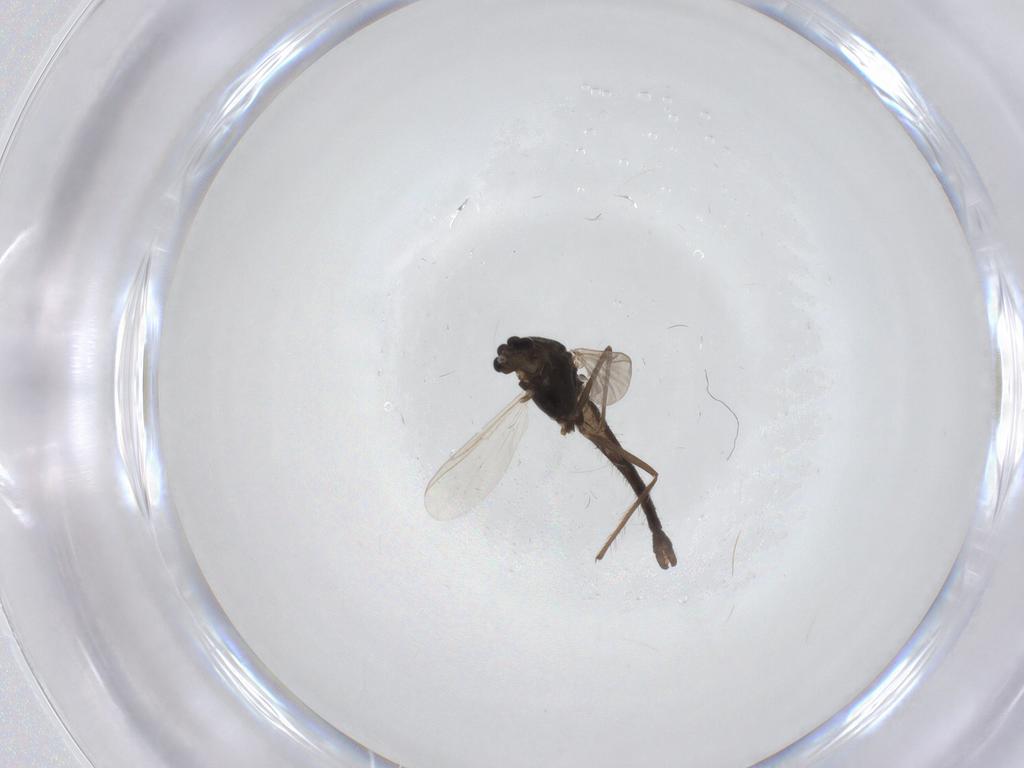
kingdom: Animalia
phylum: Arthropoda
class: Insecta
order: Diptera
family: Chironomidae
